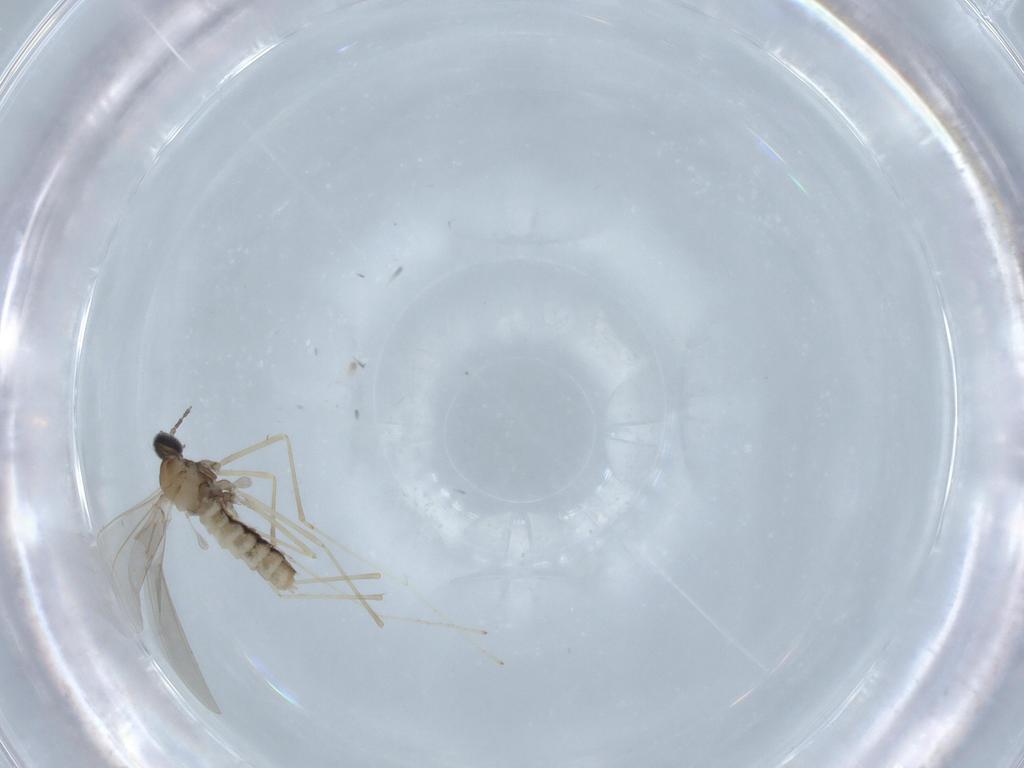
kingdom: Animalia
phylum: Arthropoda
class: Insecta
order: Diptera
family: Cecidomyiidae
